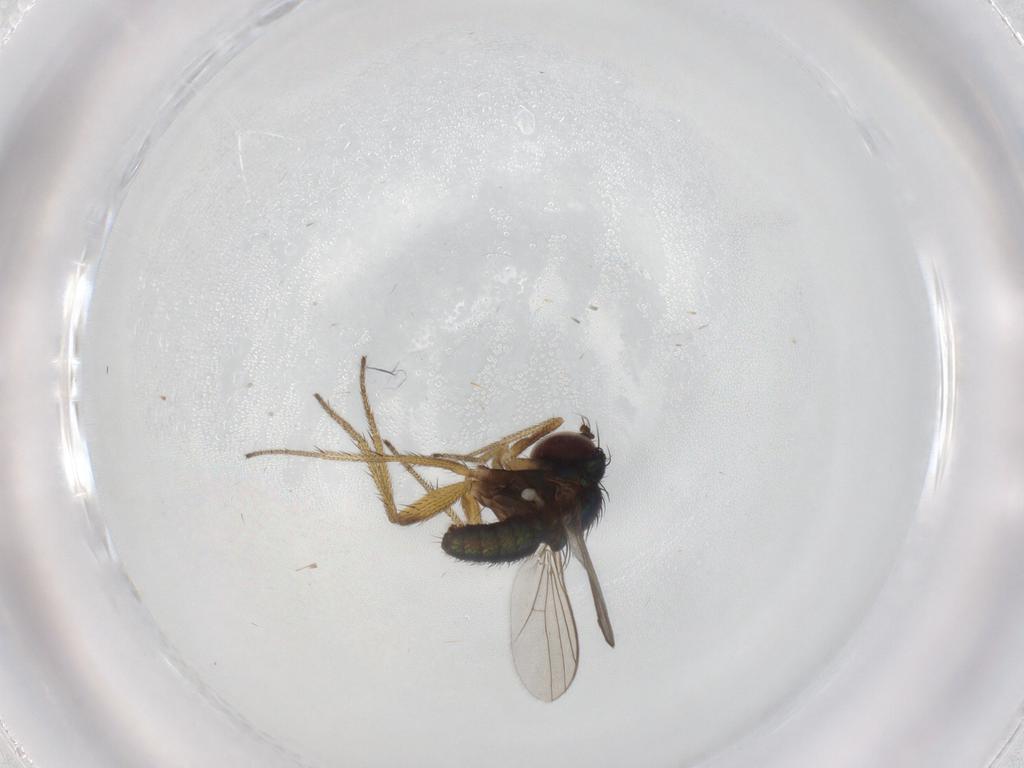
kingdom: Animalia
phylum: Arthropoda
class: Insecta
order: Diptera
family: Dolichopodidae
